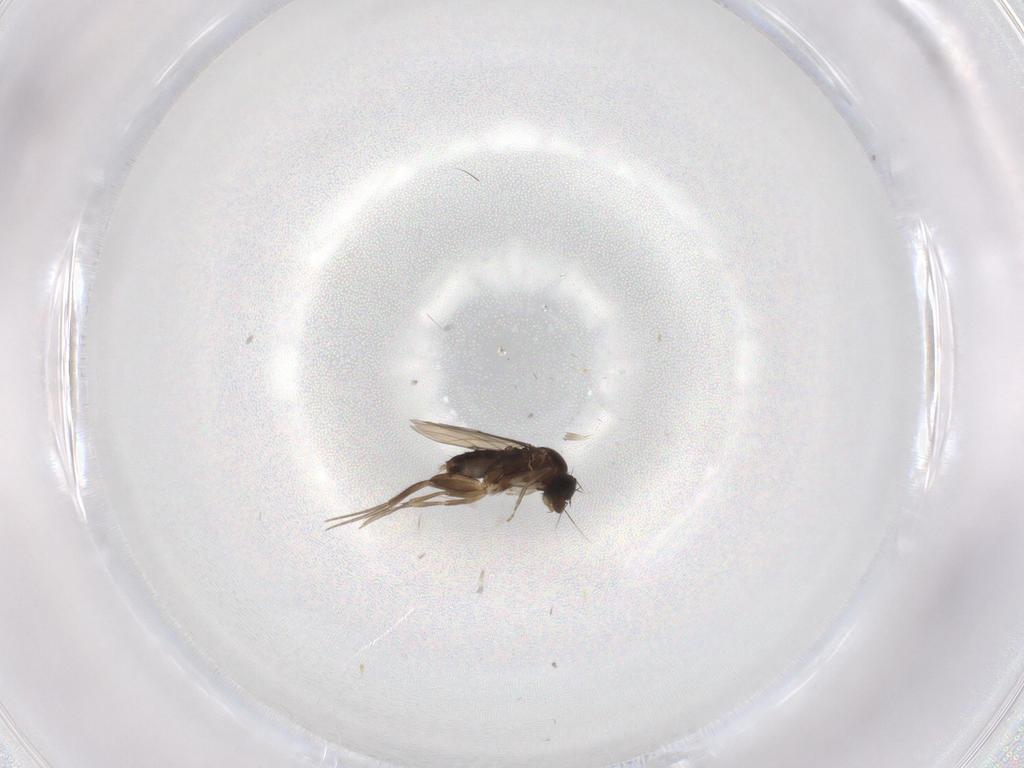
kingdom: Animalia
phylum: Arthropoda
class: Insecta
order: Diptera
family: Phoridae
